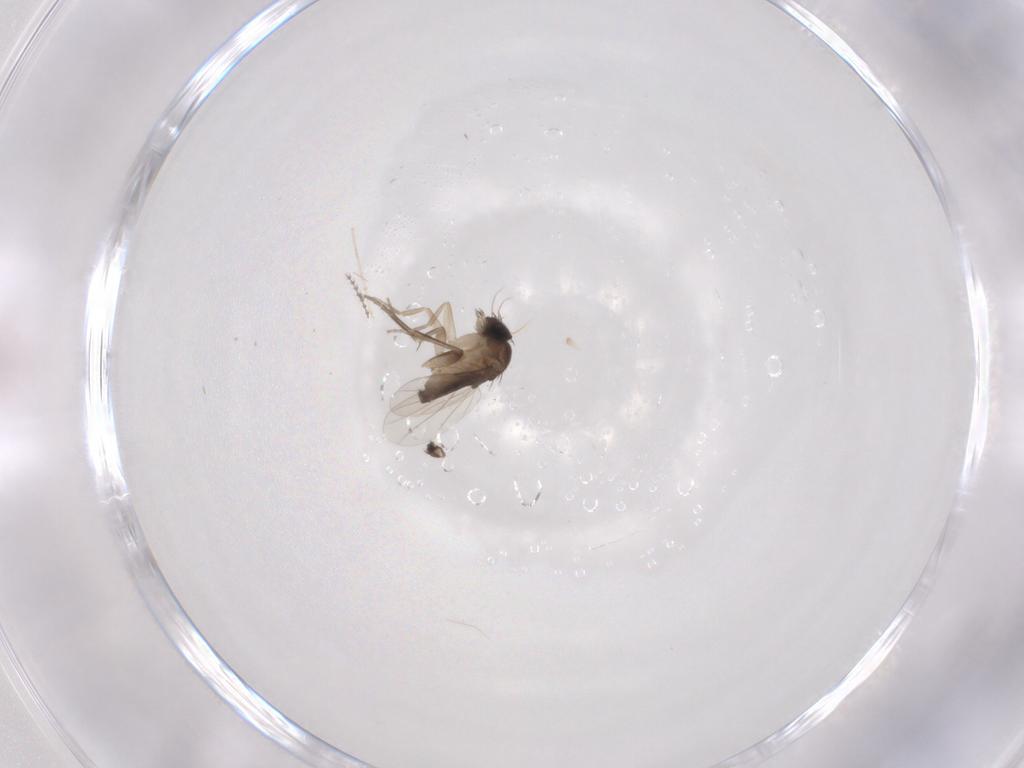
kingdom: Animalia
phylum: Arthropoda
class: Insecta
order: Diptera
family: Phoridae
